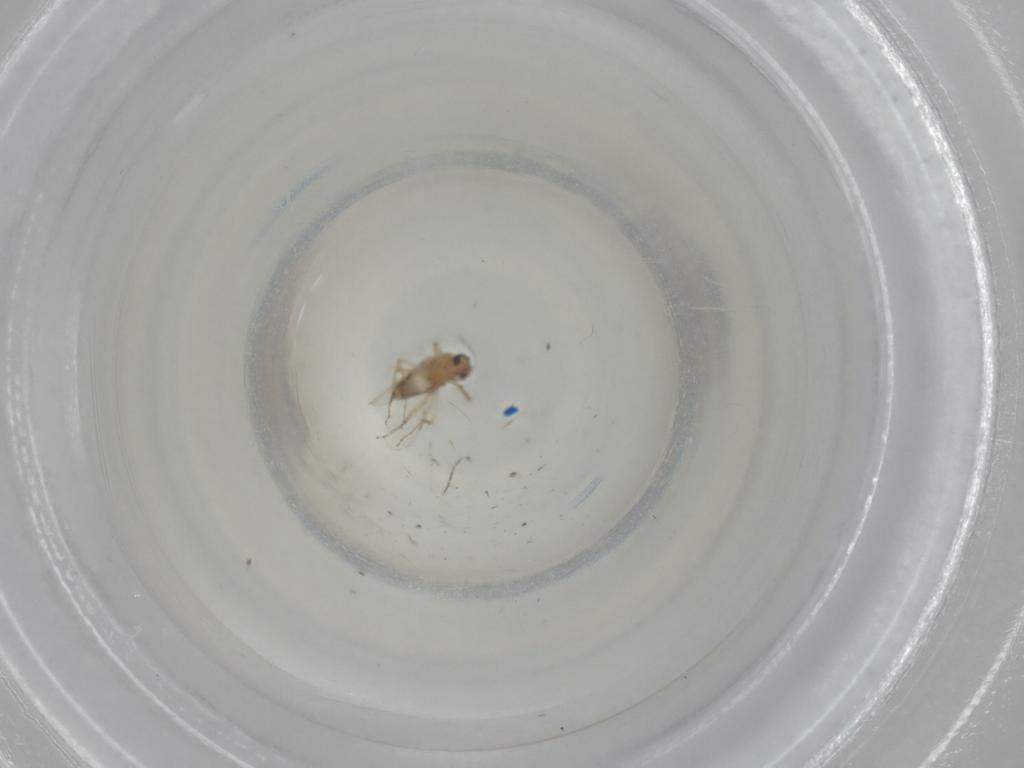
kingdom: Animalia
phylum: Arthropoda
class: Insecta
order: Diptera
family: Ceratopogonidae
